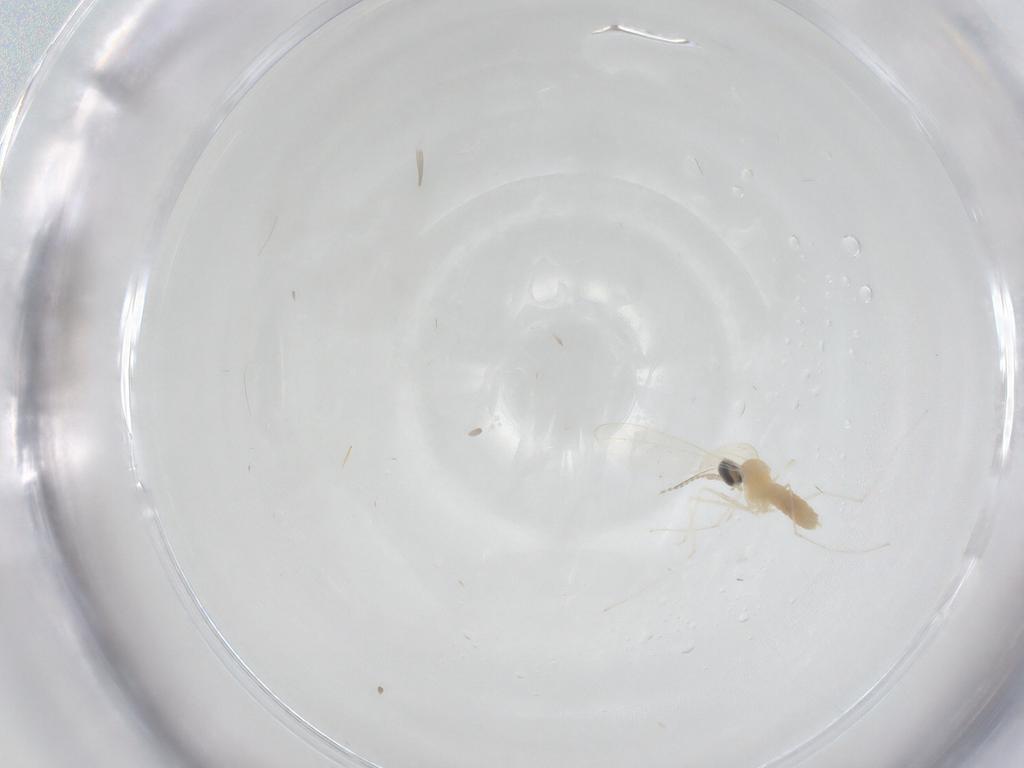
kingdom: Animalia
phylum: Arthropoda
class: Insecta
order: Diptera
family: Cecidomyiidae
